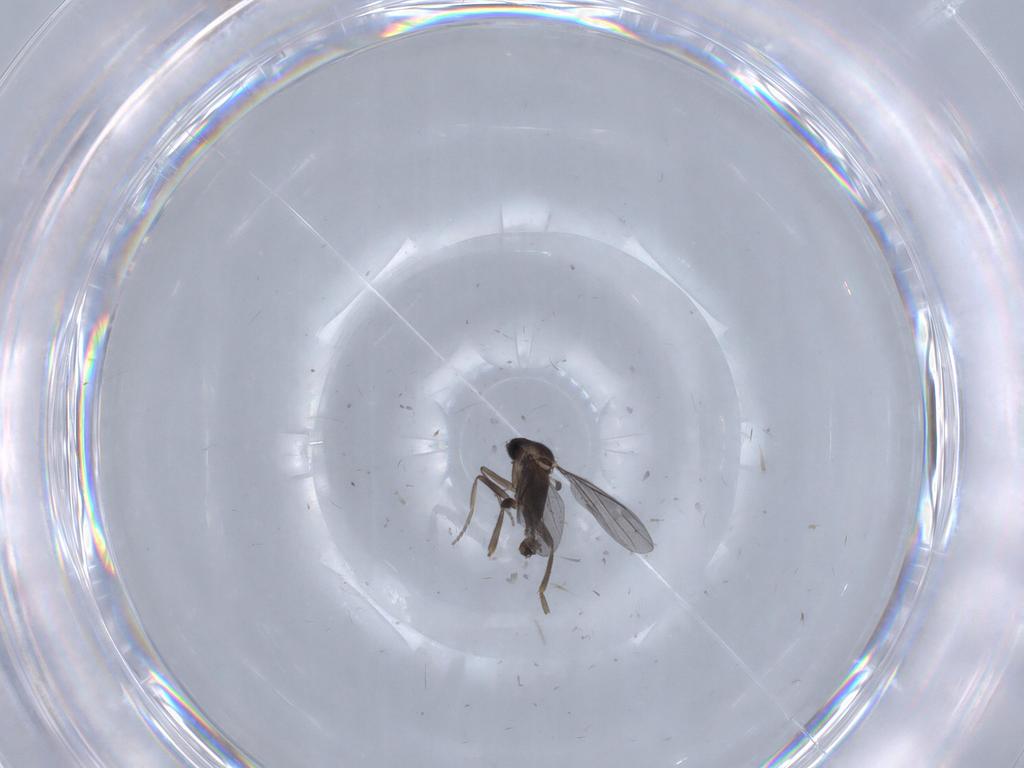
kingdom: Animalia
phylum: Arthropoda
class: Insecta
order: Diptera
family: Phoridae
